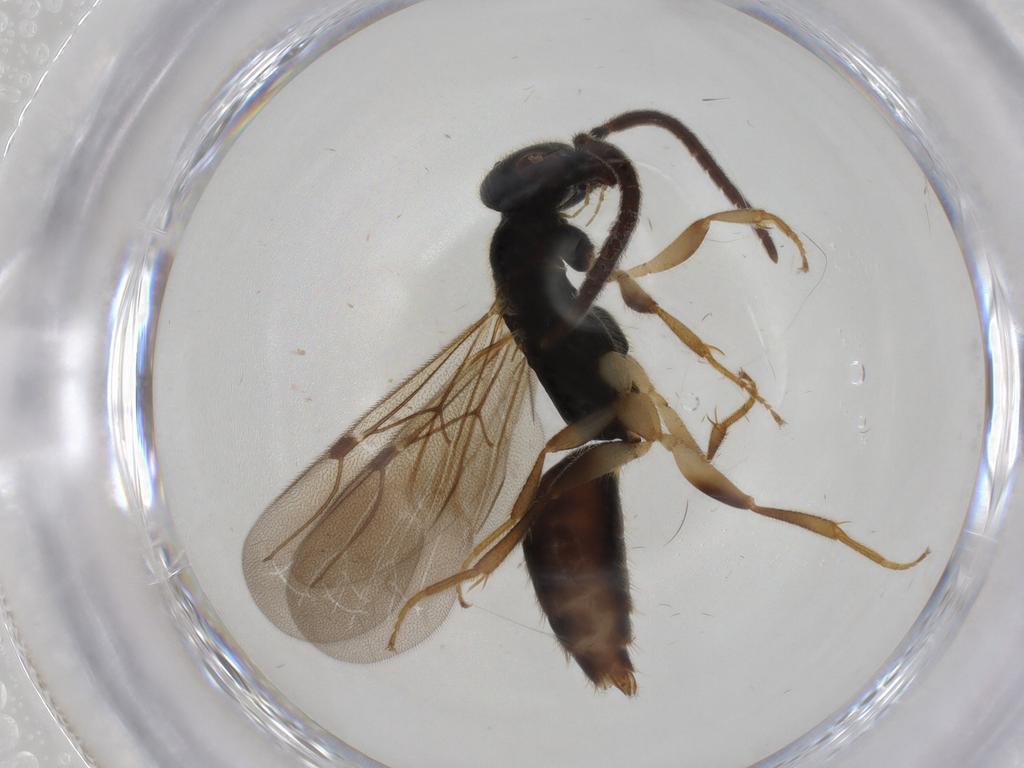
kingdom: Animalia
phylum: Arthropoda
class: Insecta
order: Hymenoptera
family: Bethylidae
